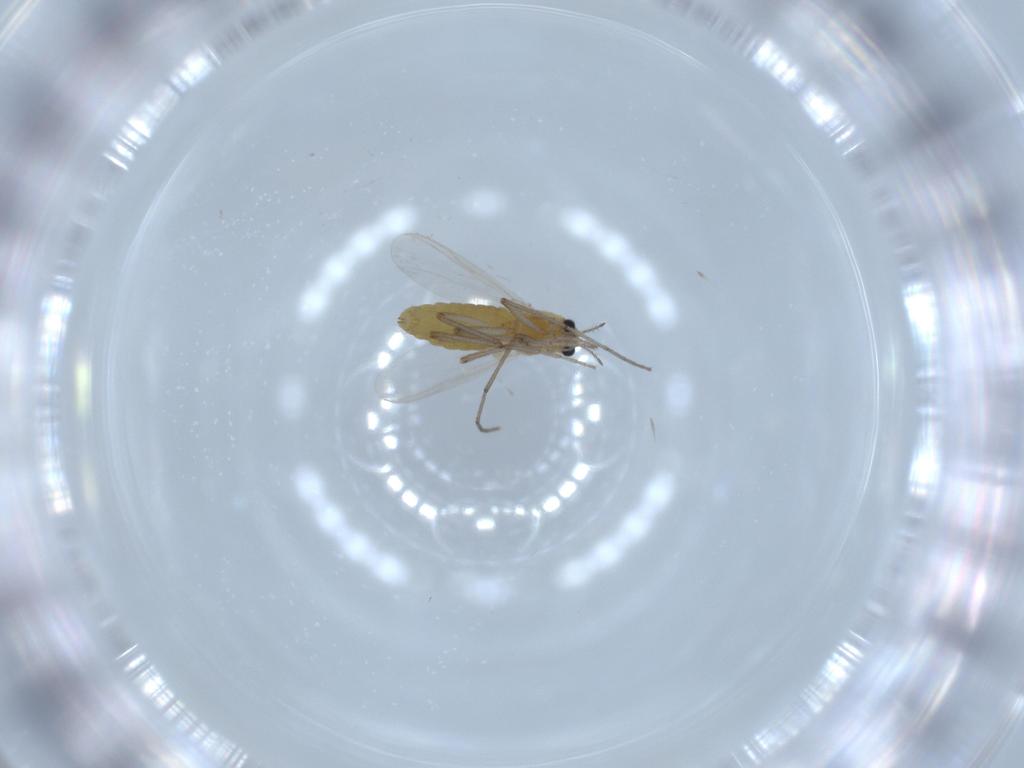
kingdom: Animalia
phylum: Arthropoda
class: Insecta
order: Diptera
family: Chironomidae
